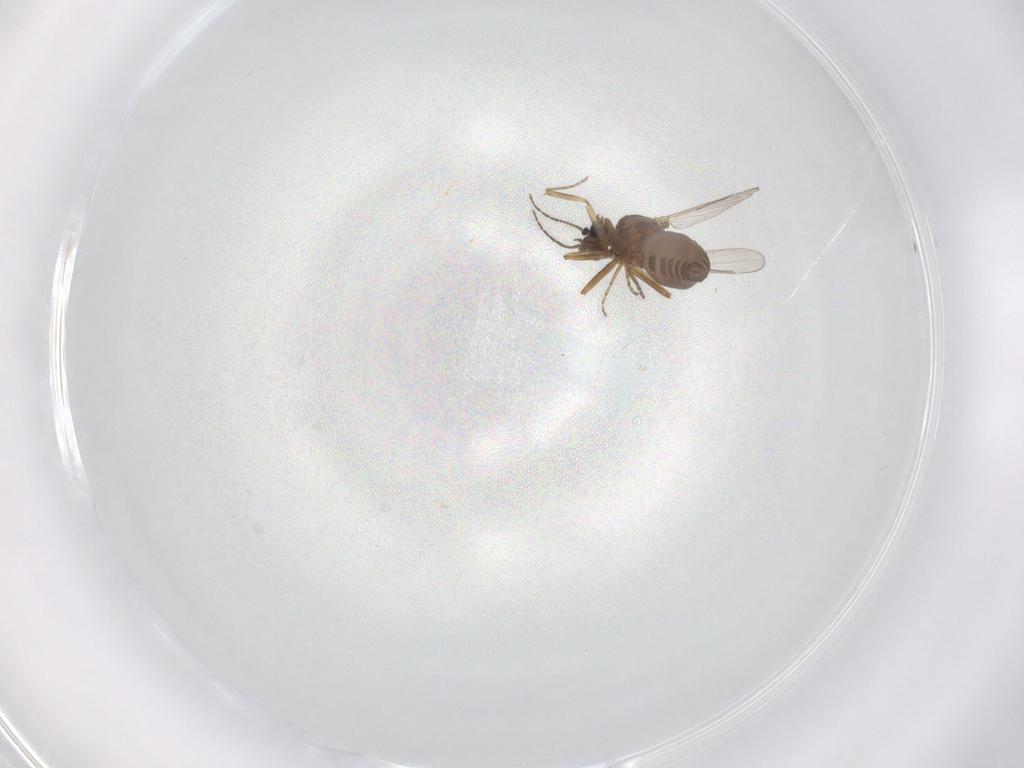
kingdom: Animalia
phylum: Arthropoda
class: Insecta
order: Diptera
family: Ceratopogonidae
